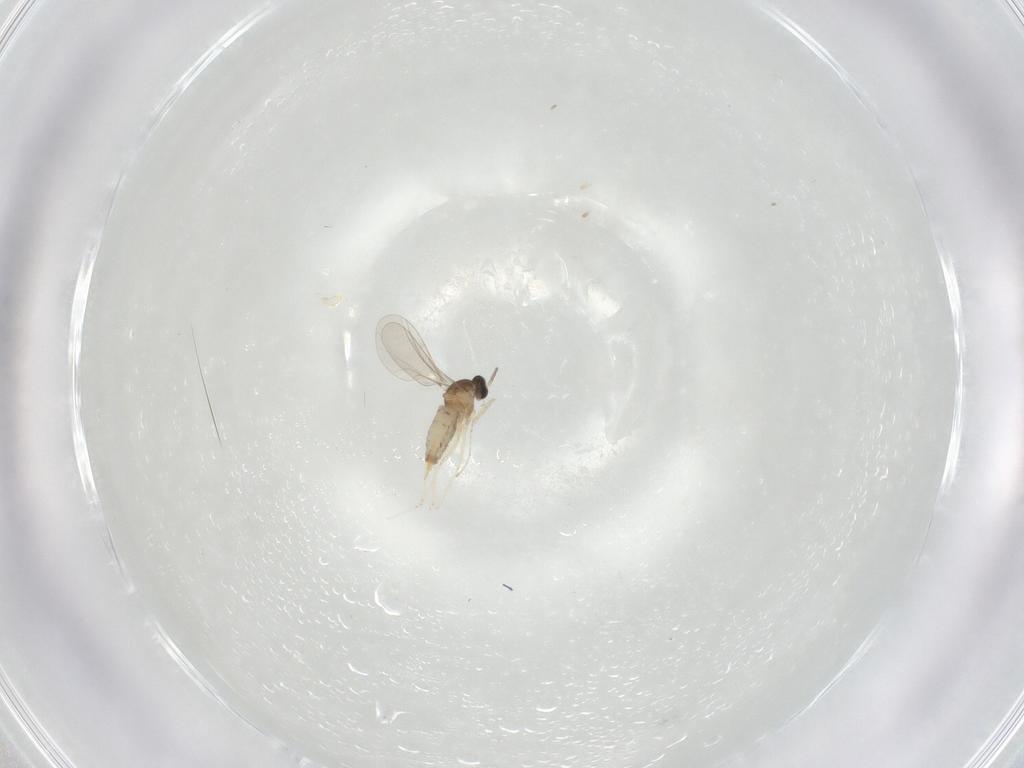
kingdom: Animalia
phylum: Arthropoda
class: Insecta
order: Diptera
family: Cecidomyiidae
